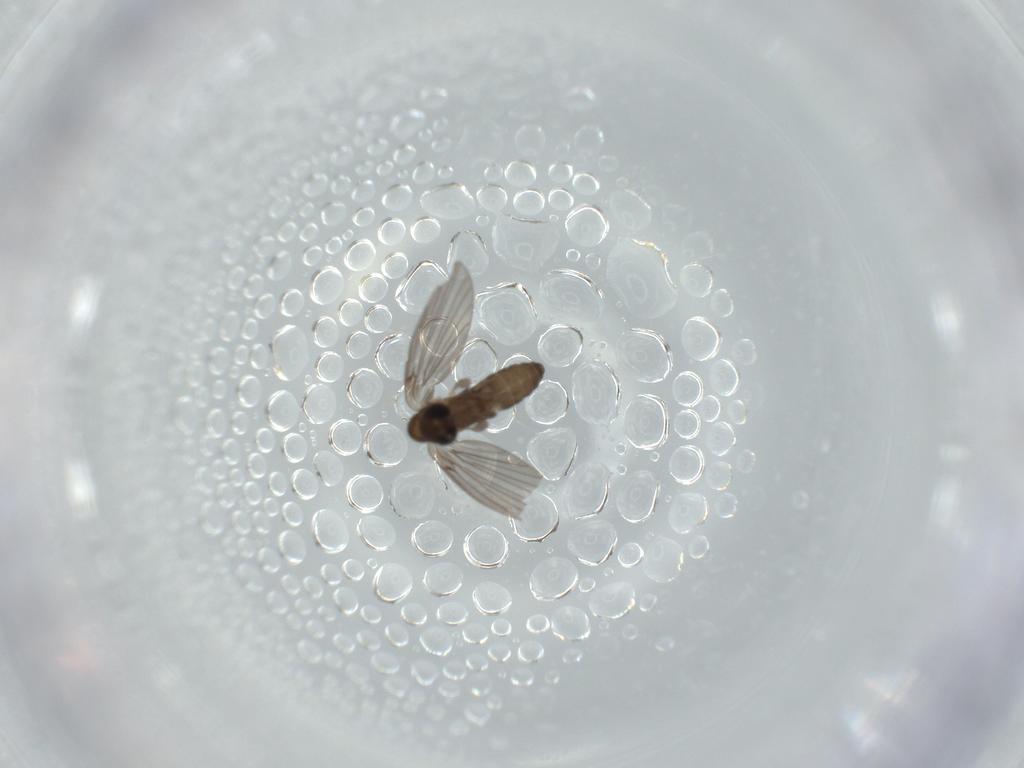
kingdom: Animalia
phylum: Arthropoda
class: Insecta
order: Diptera
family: Psychodidae
